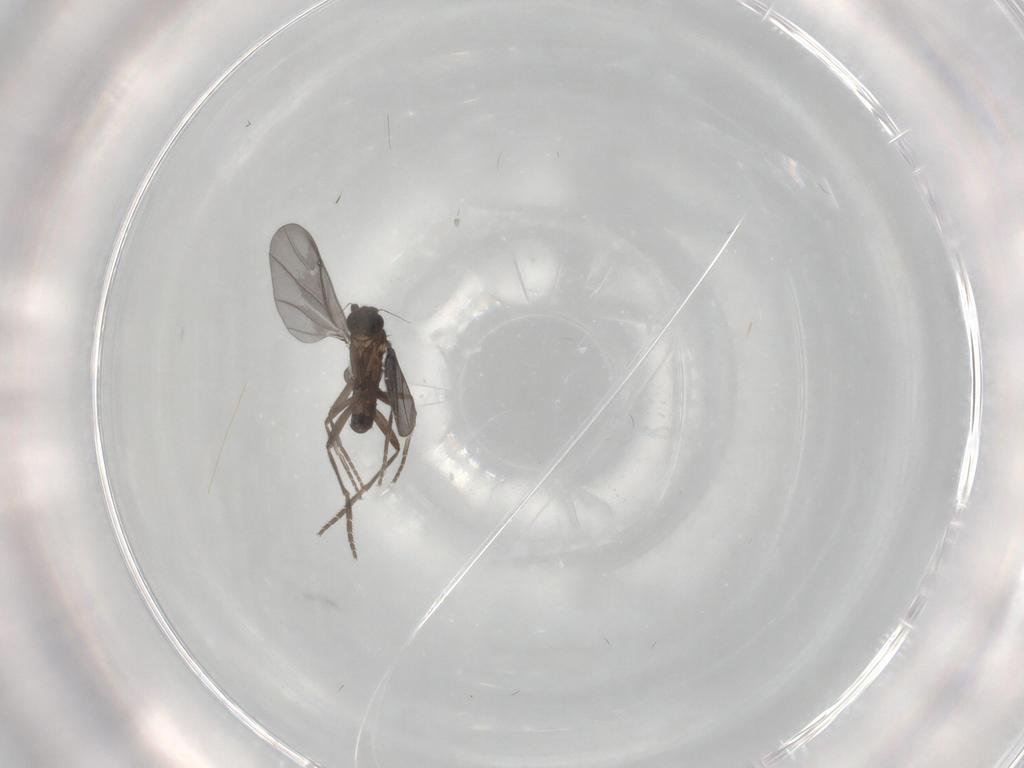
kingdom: Animalia
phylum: Arthropoda
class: Insecta
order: Diptera
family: Phoridae
